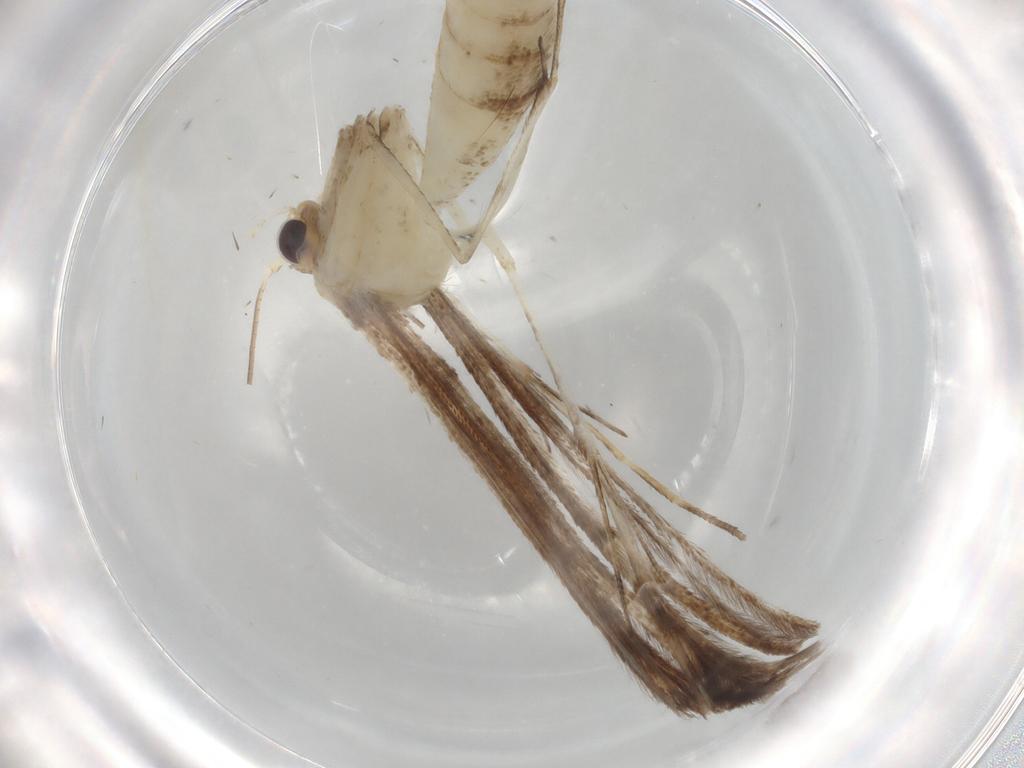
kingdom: Animalia
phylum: Arthropoda
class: Insecta
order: Lepidoptera
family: Pterophoridae
